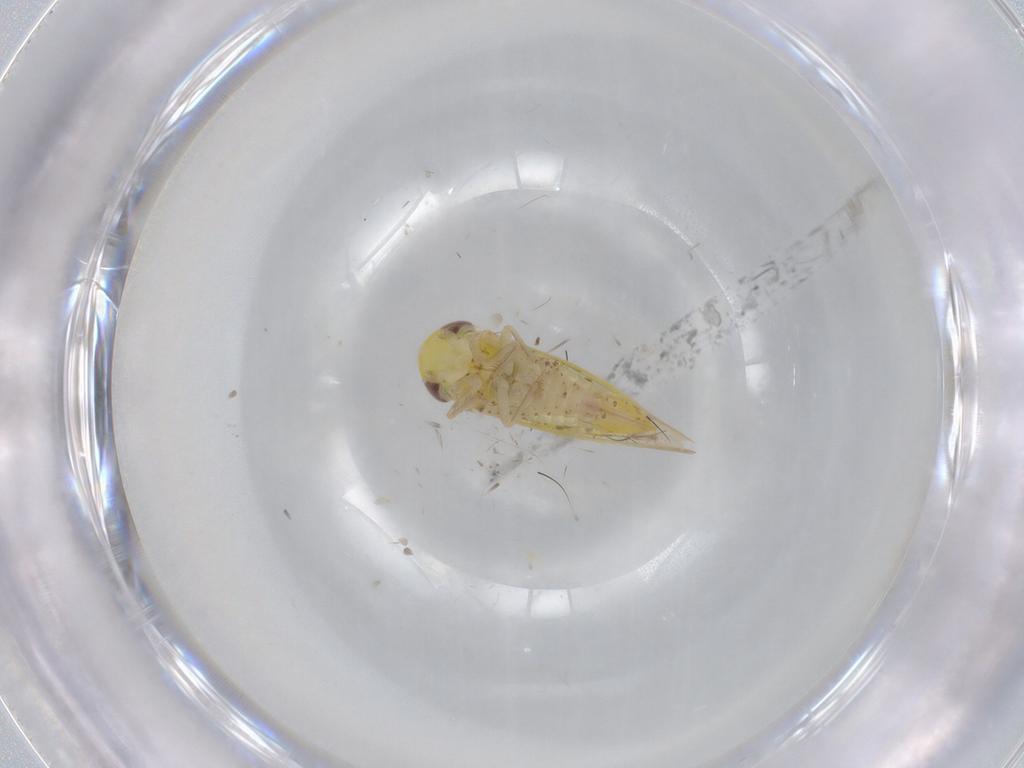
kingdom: Animalia
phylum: Arthropoda
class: Insecta
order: Hemiptera
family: Cicadellidae
